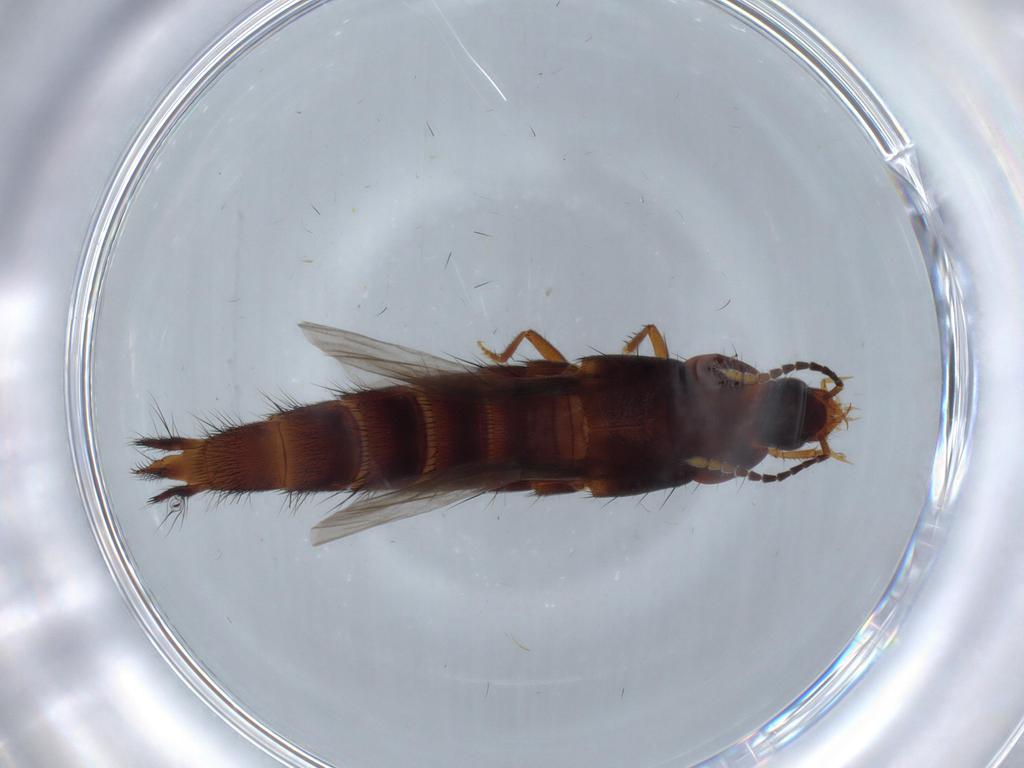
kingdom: Animalia
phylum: Arthropoda
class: Insecta
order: Coleoptera
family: Staphylinidae
